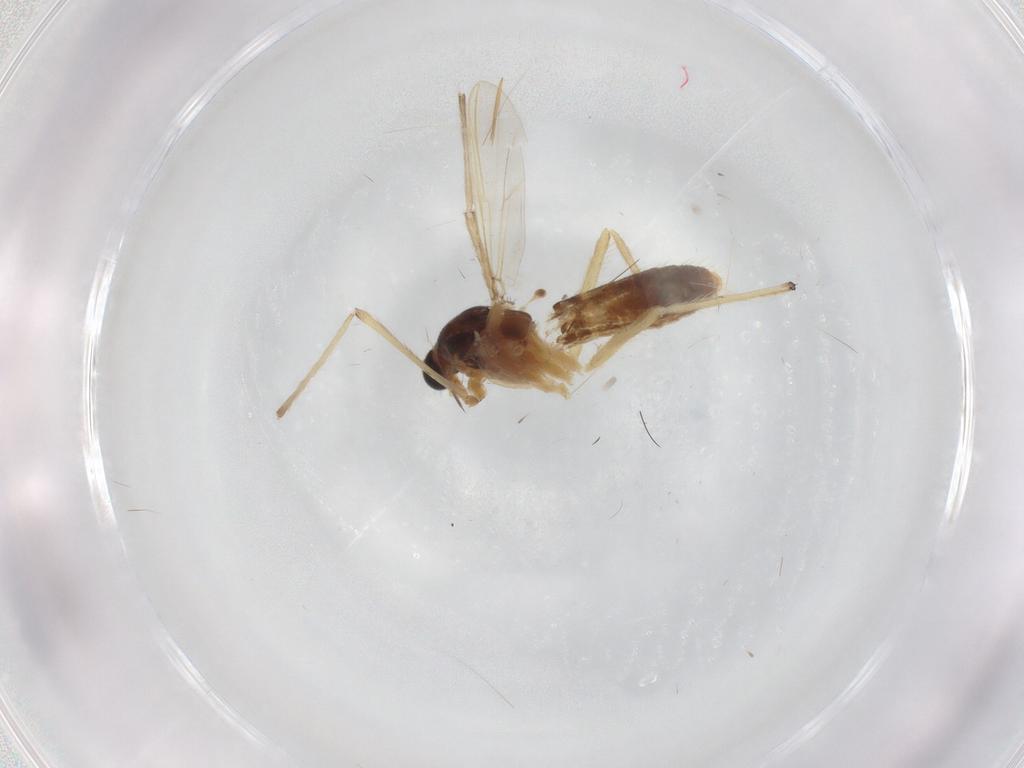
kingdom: Animalia
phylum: Arthropoda
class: Insecta
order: Diptera
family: Chironomidae
